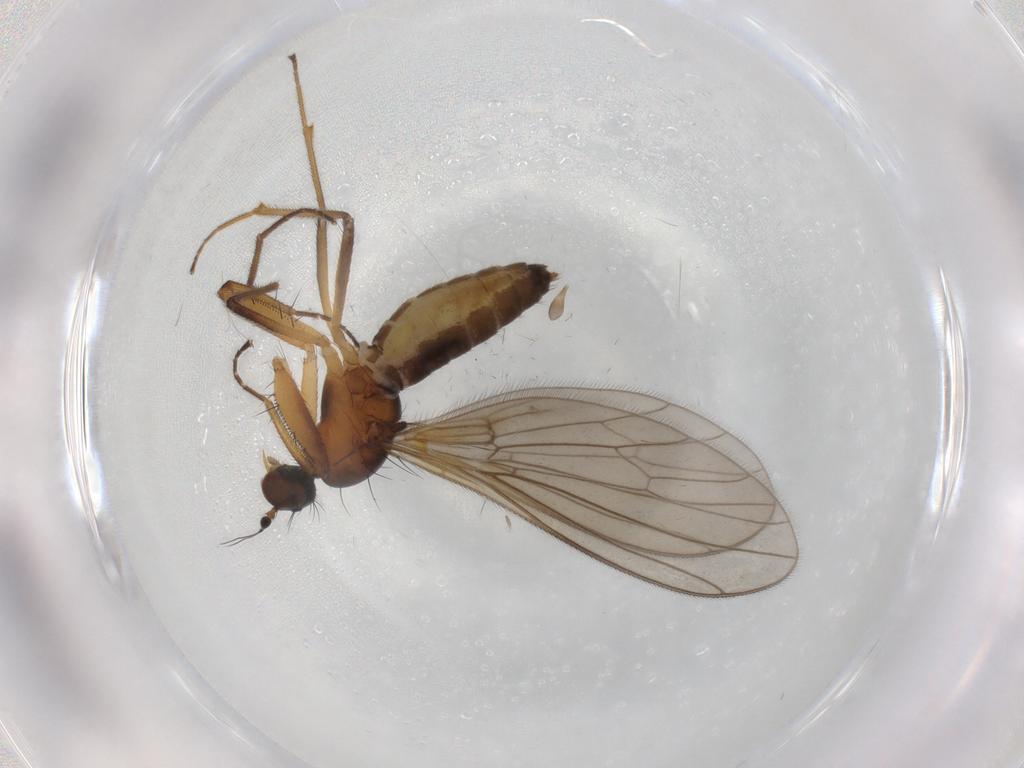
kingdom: Animalia
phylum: Arthropoda
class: Insecta
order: Diptera
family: Empididae
